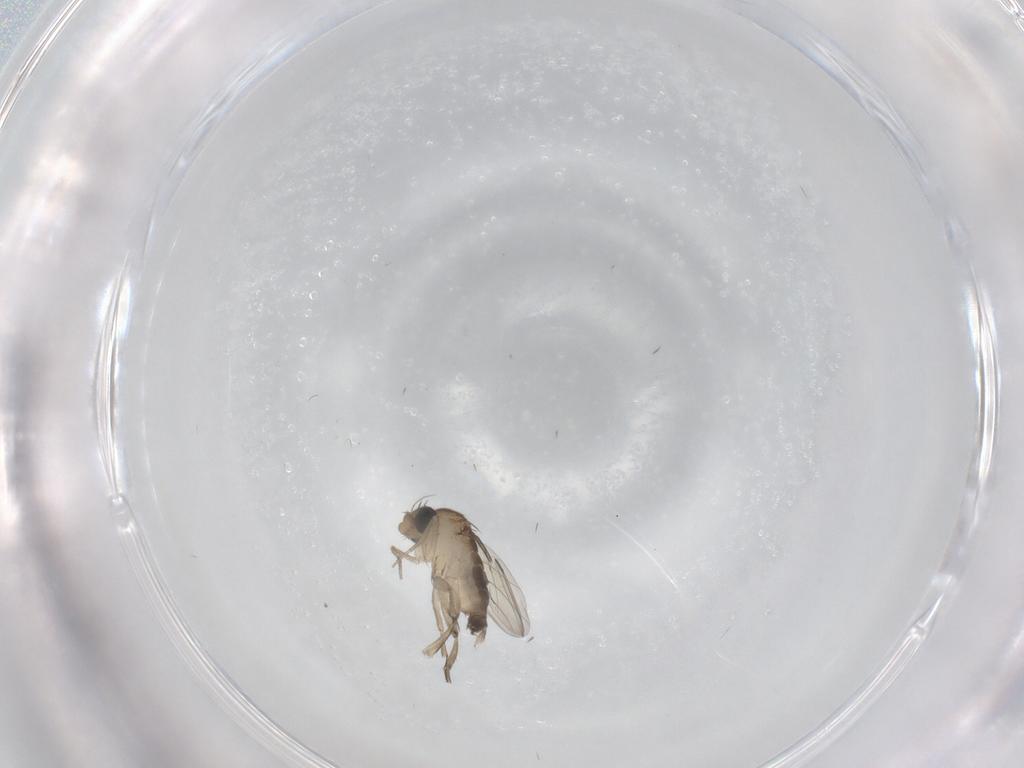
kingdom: Animalia
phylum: Arthropoda
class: Insecta
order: Diptera
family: Phoridae
